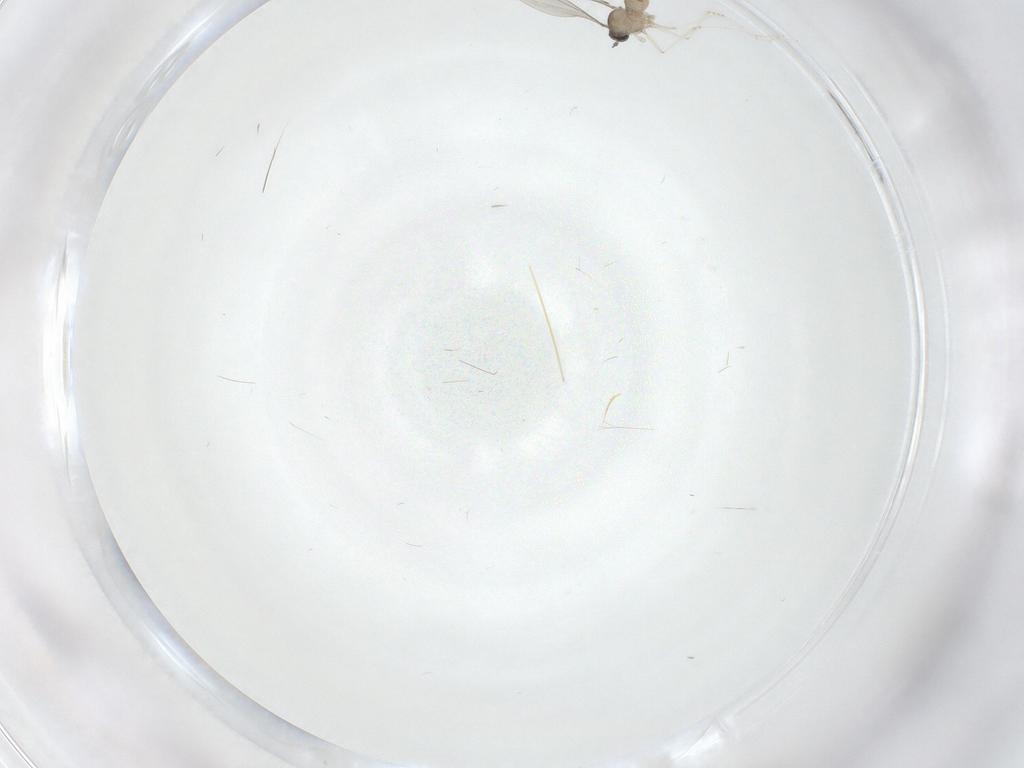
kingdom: Animalia
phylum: Arthropoda
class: Insecta
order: Diptera
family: Cecidomyiidae
